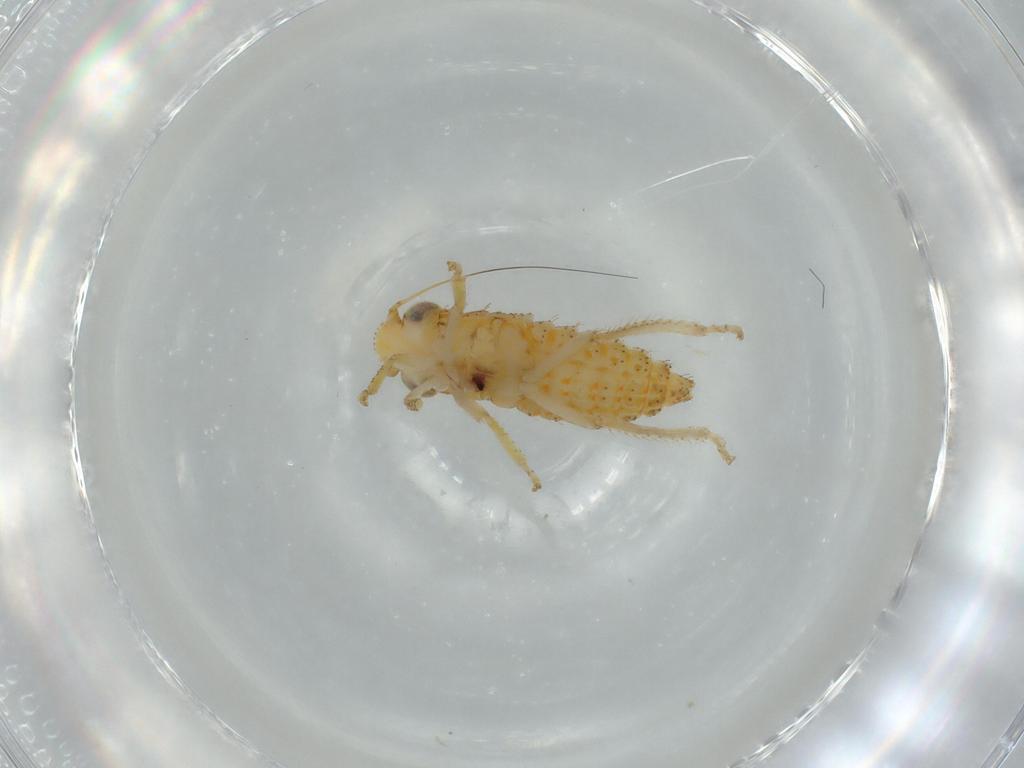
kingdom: Animalia
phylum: Arthropoda
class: Insecta
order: Hemiptera
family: Cicadellidae
